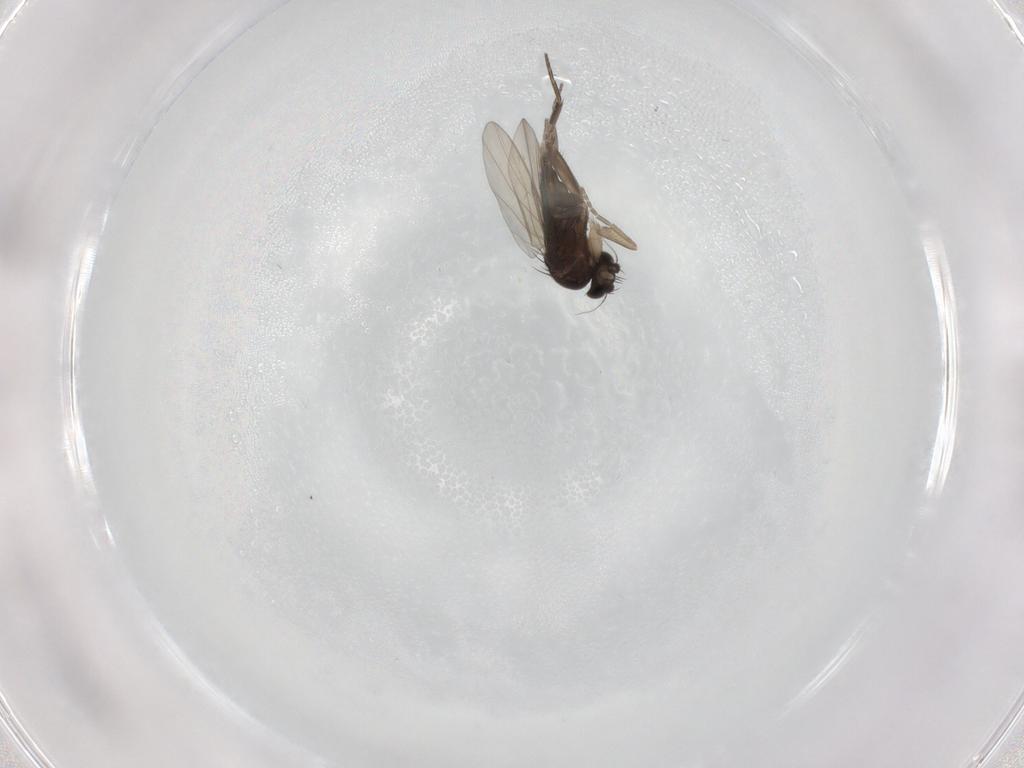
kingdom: Animalia
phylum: Arthropoda
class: Insecta
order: Diptera
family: Phoridae
